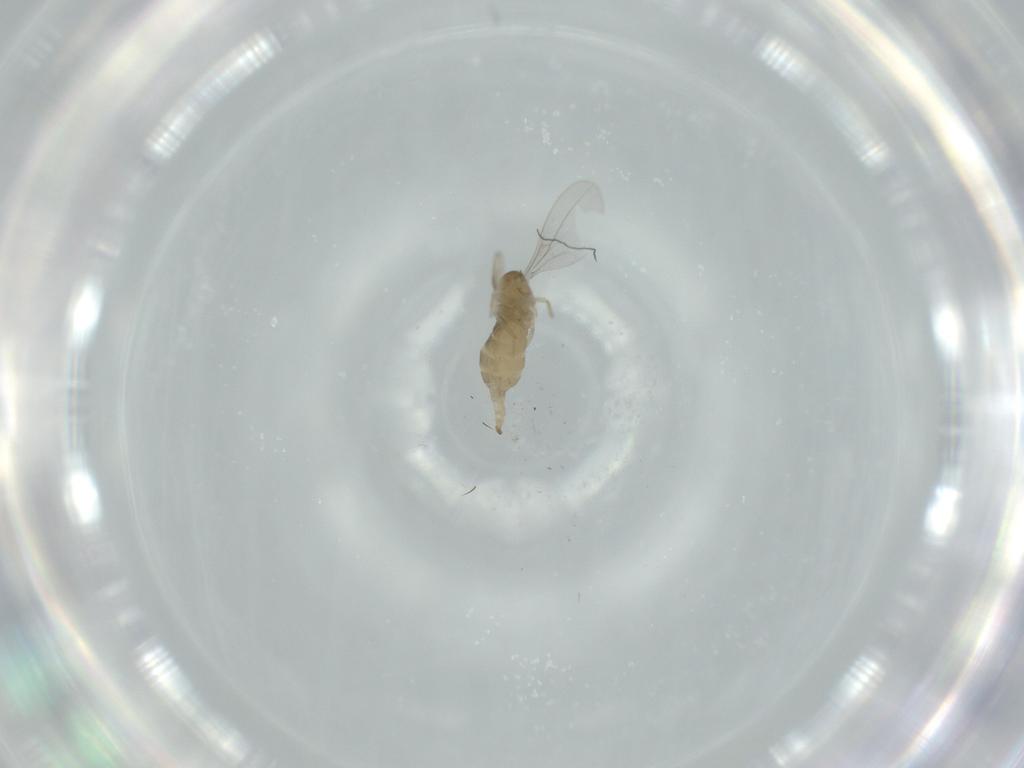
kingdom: Animalia
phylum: Arthropoda
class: Insecta
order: Diptera
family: Cecidomyiidae
